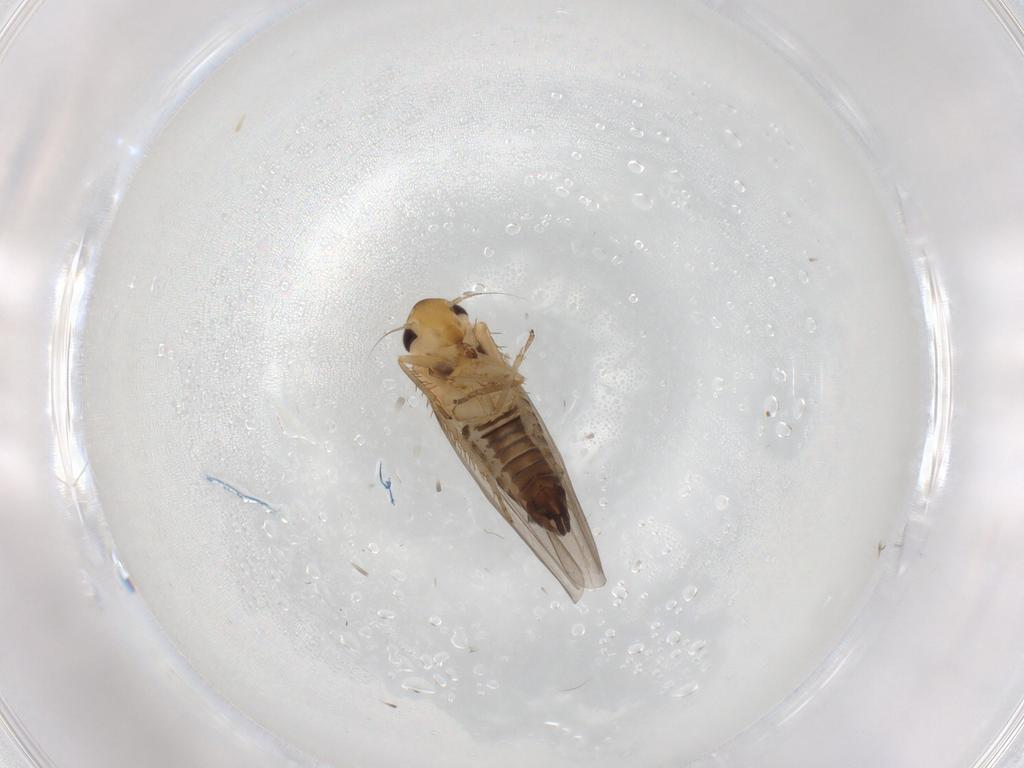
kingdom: Animalia
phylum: Arthropoda
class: Insecta
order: Hemiptera
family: Cicadellidae
